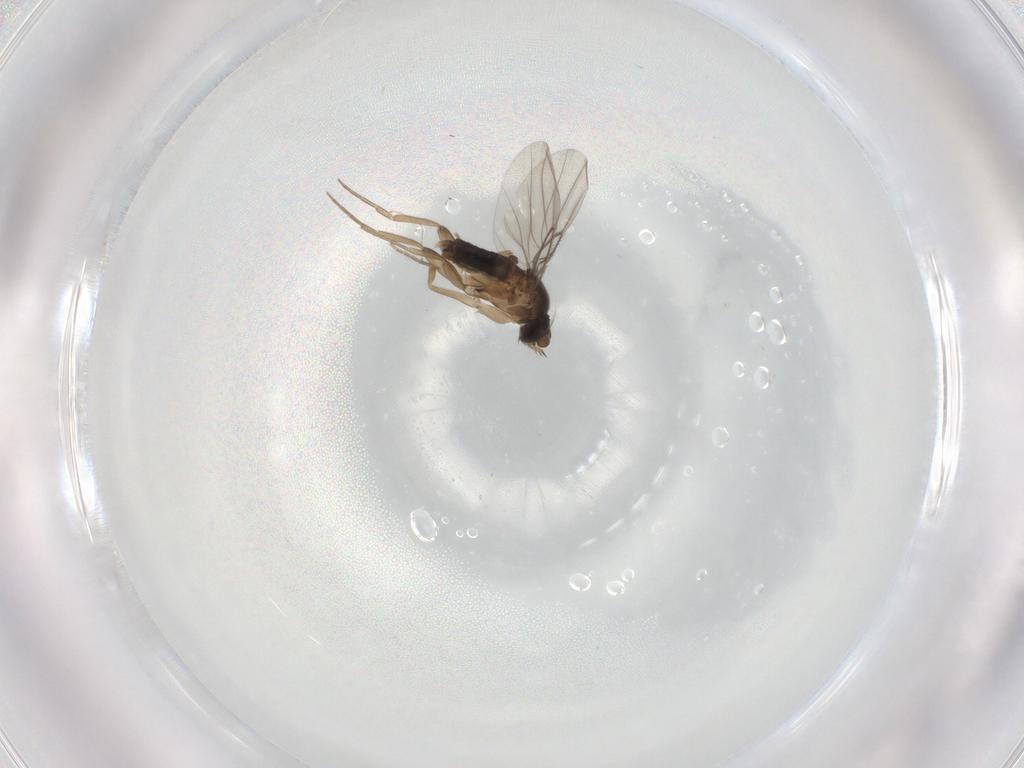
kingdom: Animalia
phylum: Arthropoda
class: Insecta
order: Diptera
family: Phoridae
